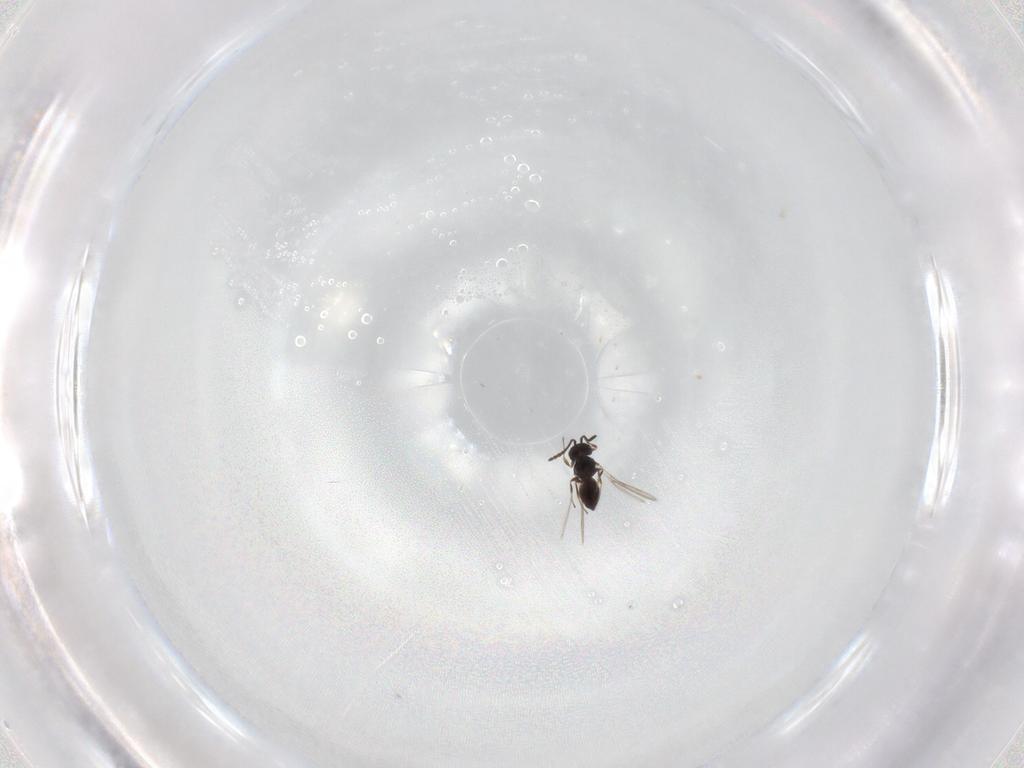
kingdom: Animalia
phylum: Arthropoda
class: Insecta
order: Hymenoptera
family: Scelionidae
